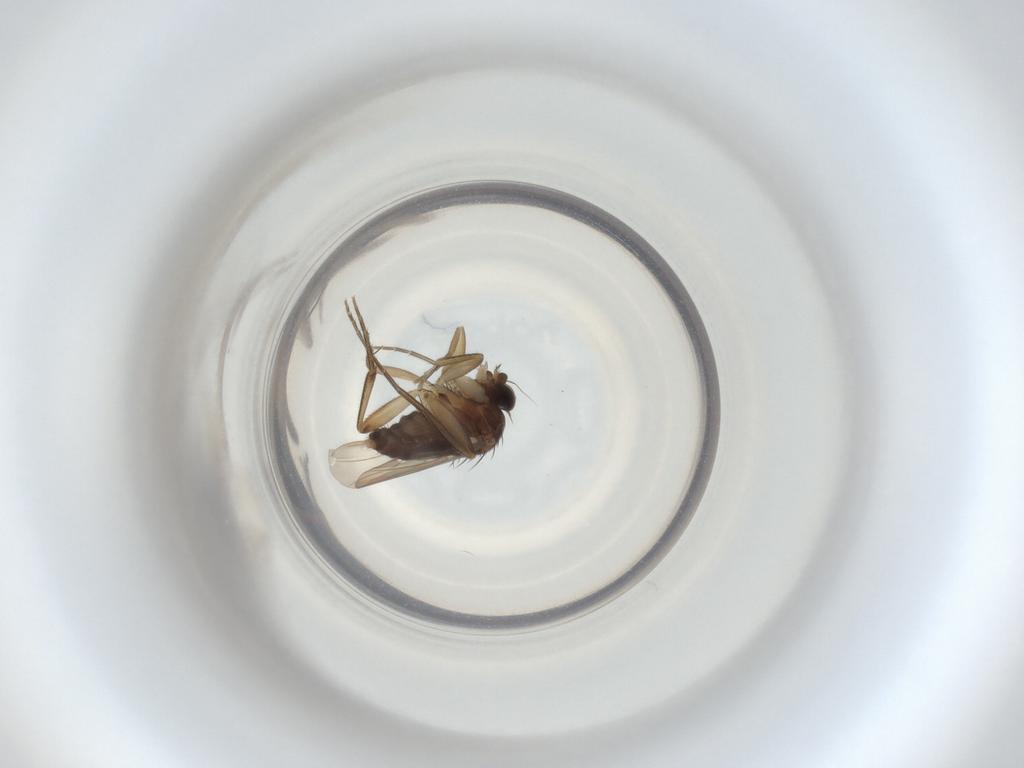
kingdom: Animalia
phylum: Arthropoda
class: Insecta
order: Diptera
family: Phoridae
